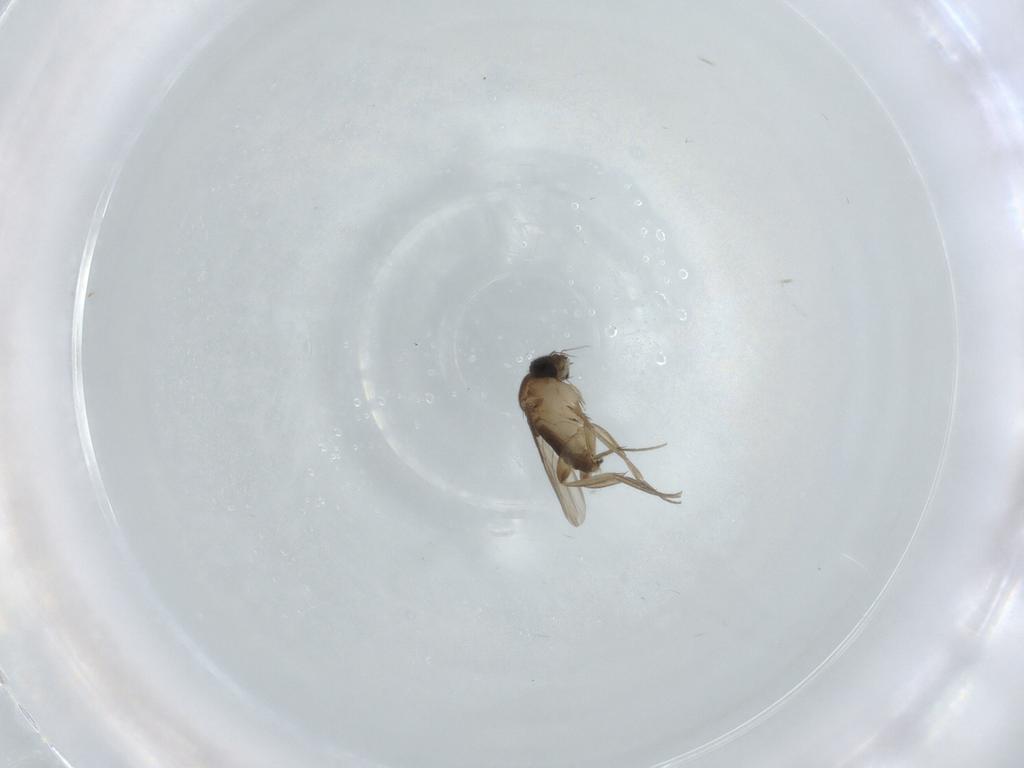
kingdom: Animalia
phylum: Arthropoda
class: Insecta
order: Diptera
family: Phoridae
